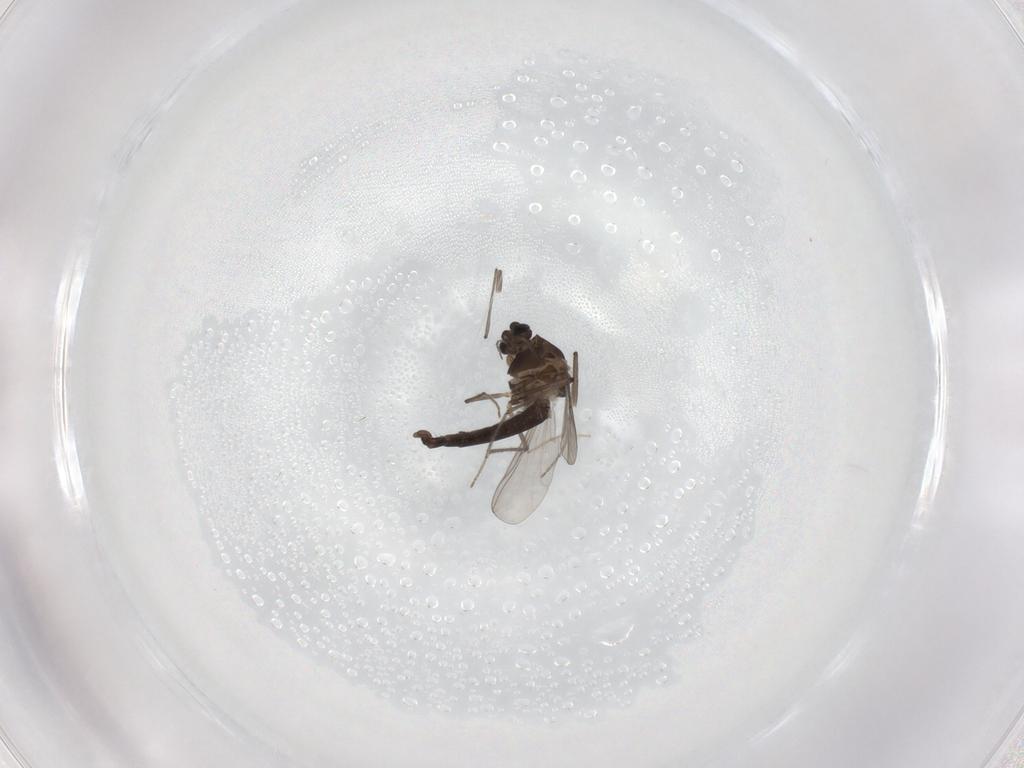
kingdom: Animalia
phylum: Arthropoda
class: Insecta
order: Diptera
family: Chironomidae
